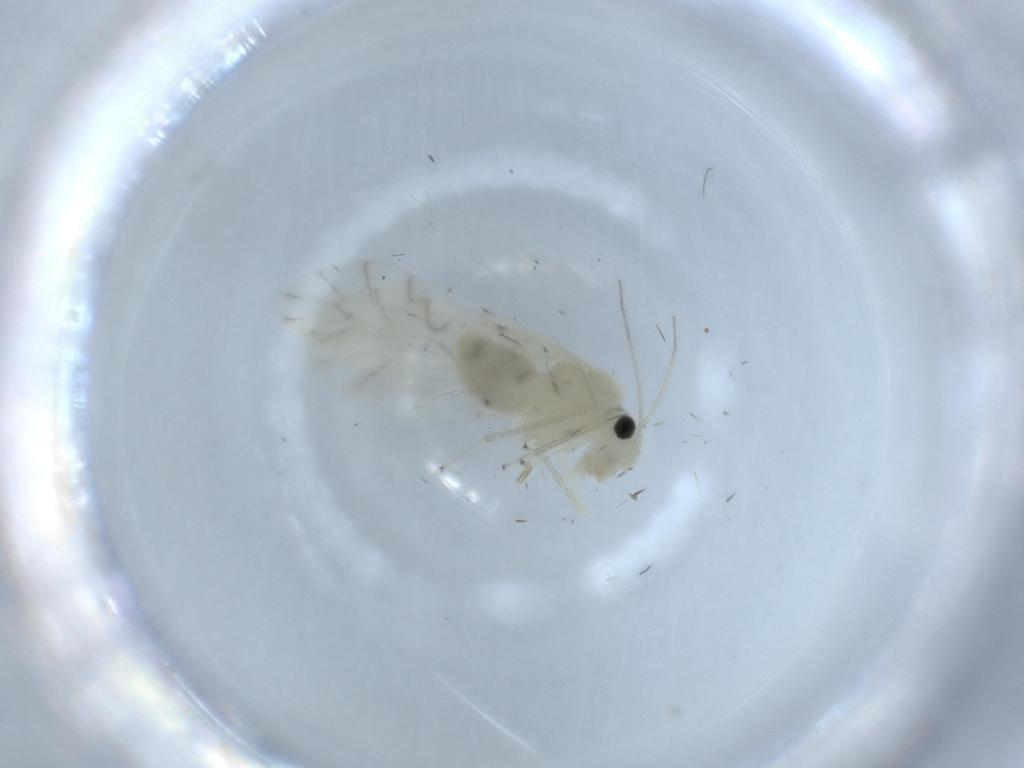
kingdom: Animalia
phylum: Arthropoda
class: Insecta
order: Psocodea
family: Caeciliusidae
